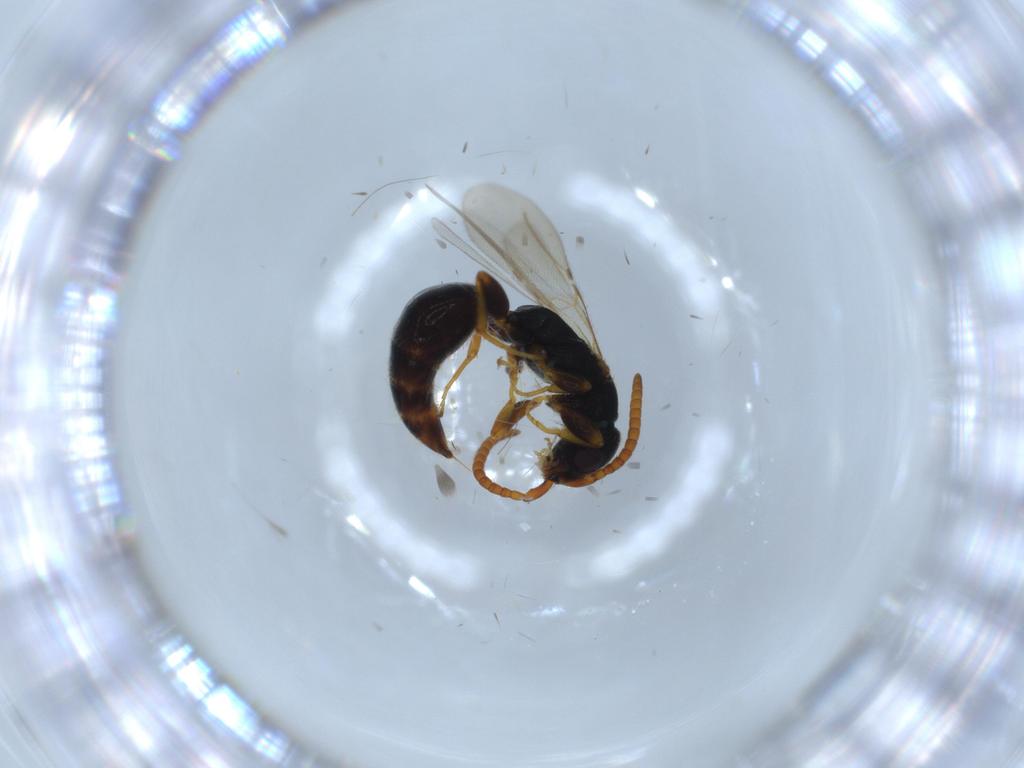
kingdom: Animalia
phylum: Arthropoda
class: Insecta
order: Hymenoptera
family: Bethylidae
